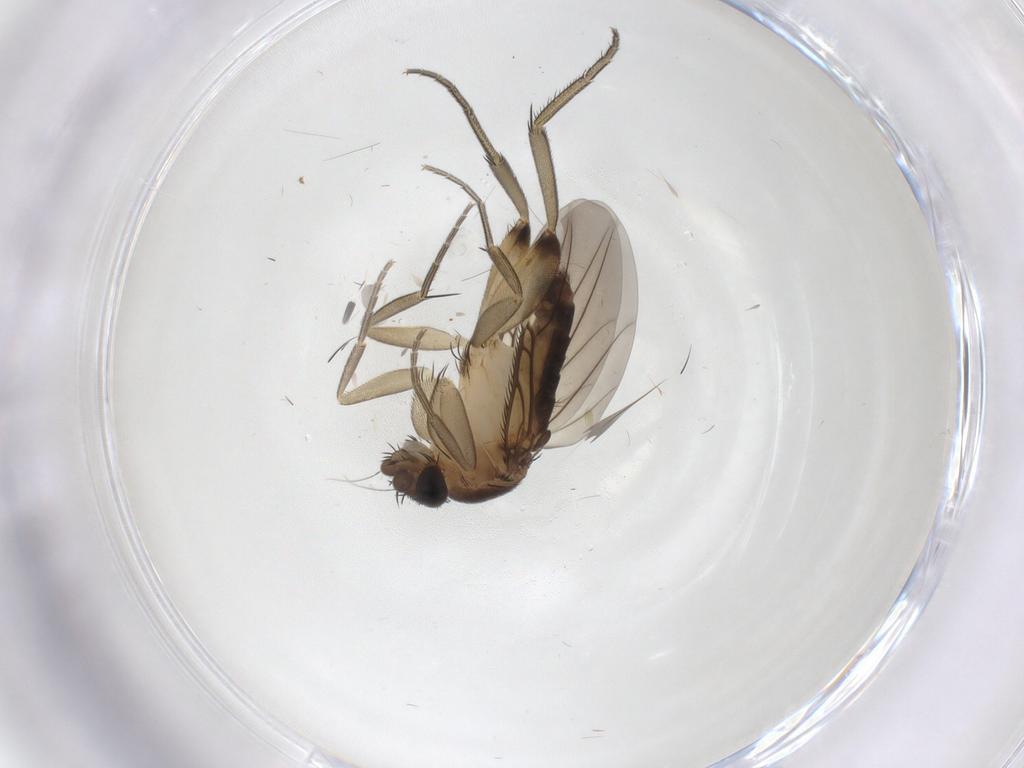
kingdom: Animalia
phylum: Arthropoda
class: Insecta
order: Diptera
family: Phoridae
